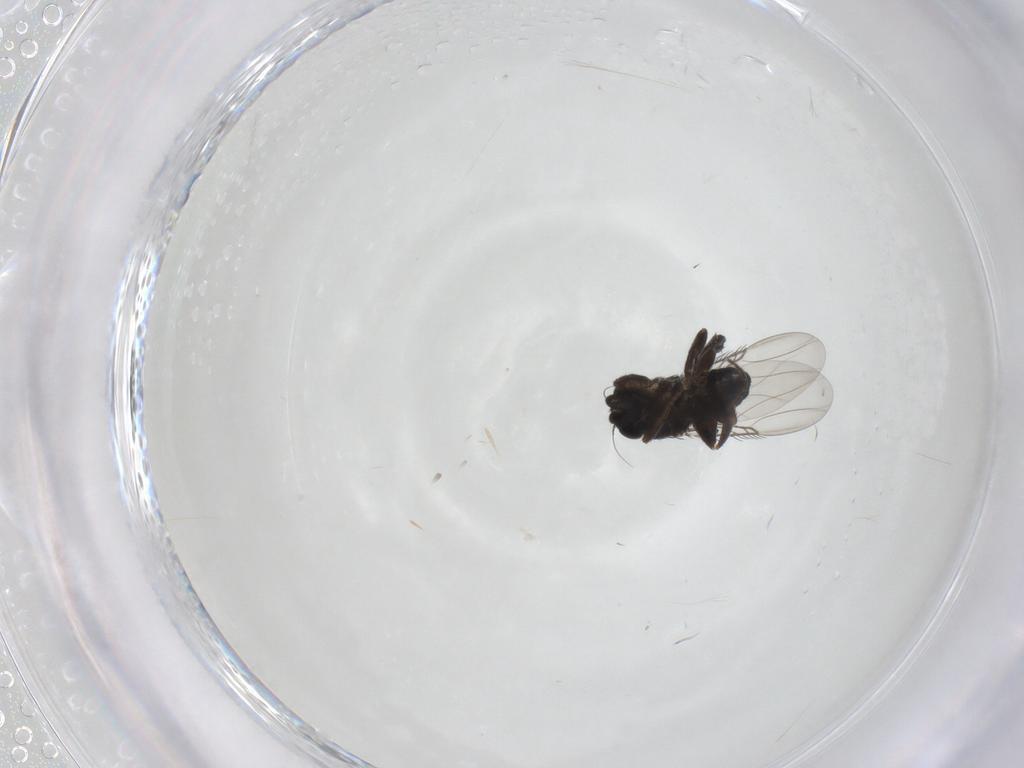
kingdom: Animalia
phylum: Arthropoda
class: Insecta
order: Diptera
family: Phoridae
